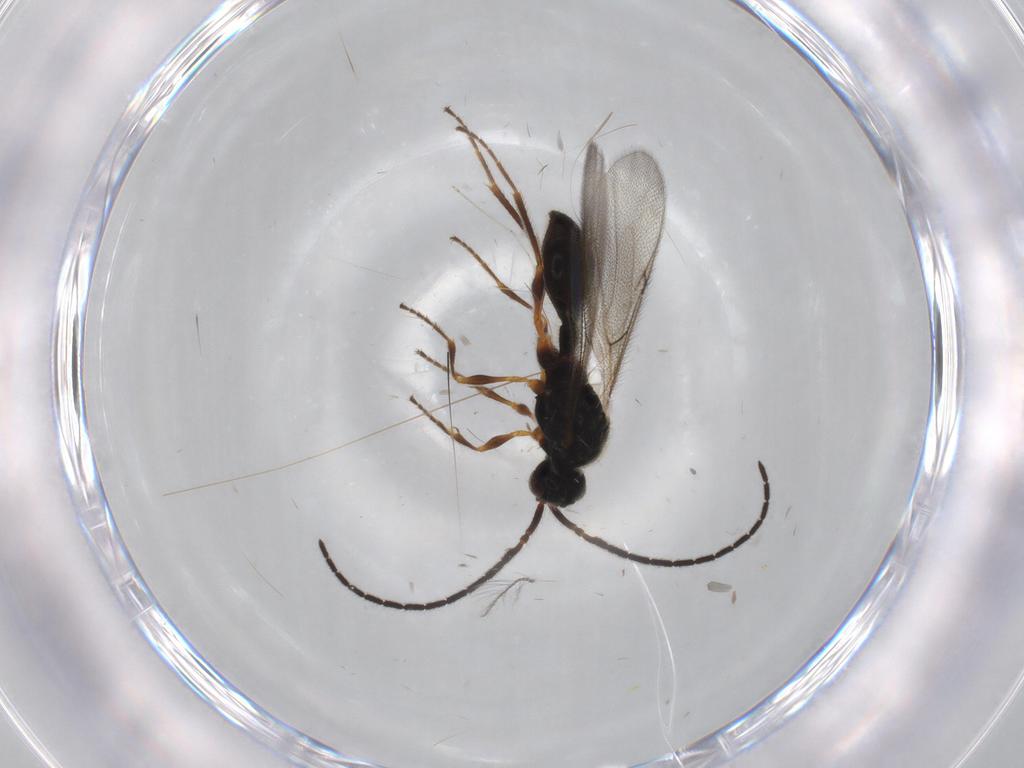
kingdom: Animalia
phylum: Arthropoda
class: Insecta
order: Hymenoptera
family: Diapriidae
